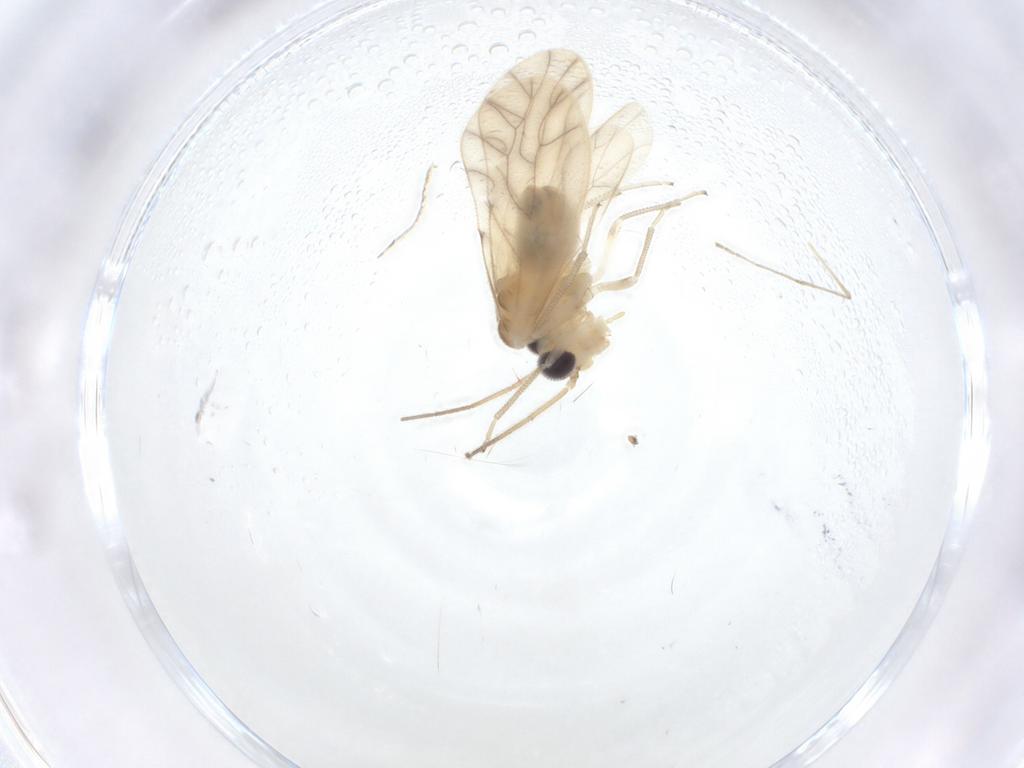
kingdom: Animalia
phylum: Arthropoda
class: Insecta
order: Psocodea
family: Caeciliusidae
